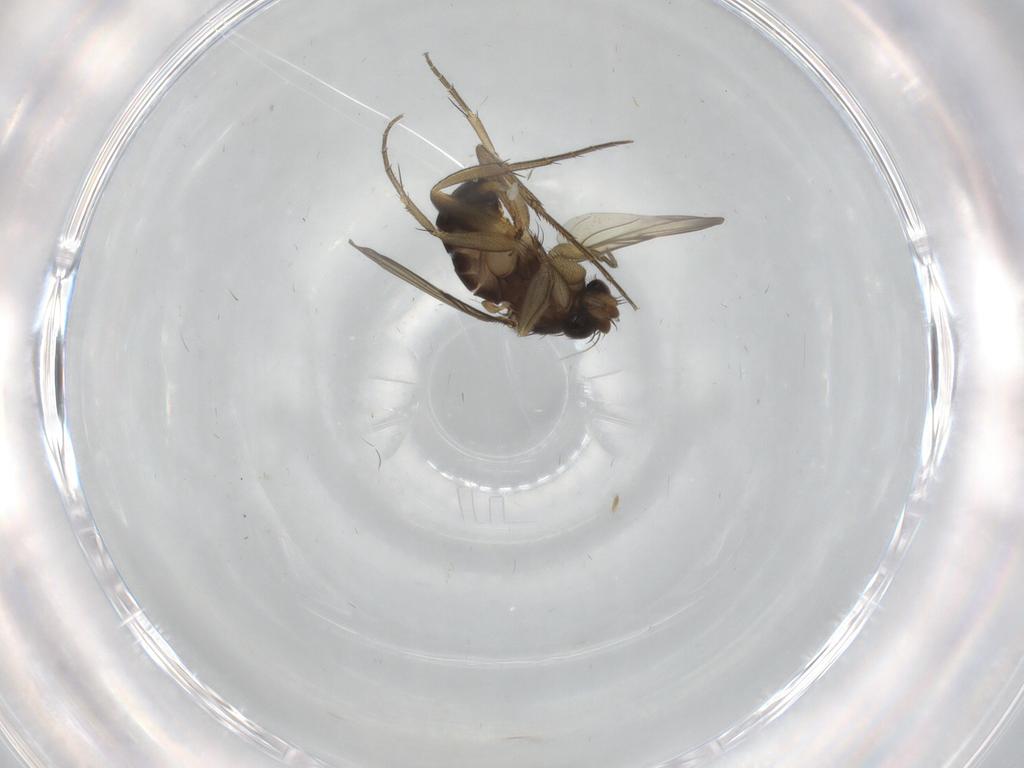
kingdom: Animalia
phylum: Arthropoda
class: Insecta
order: Diptera
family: Phoridae
